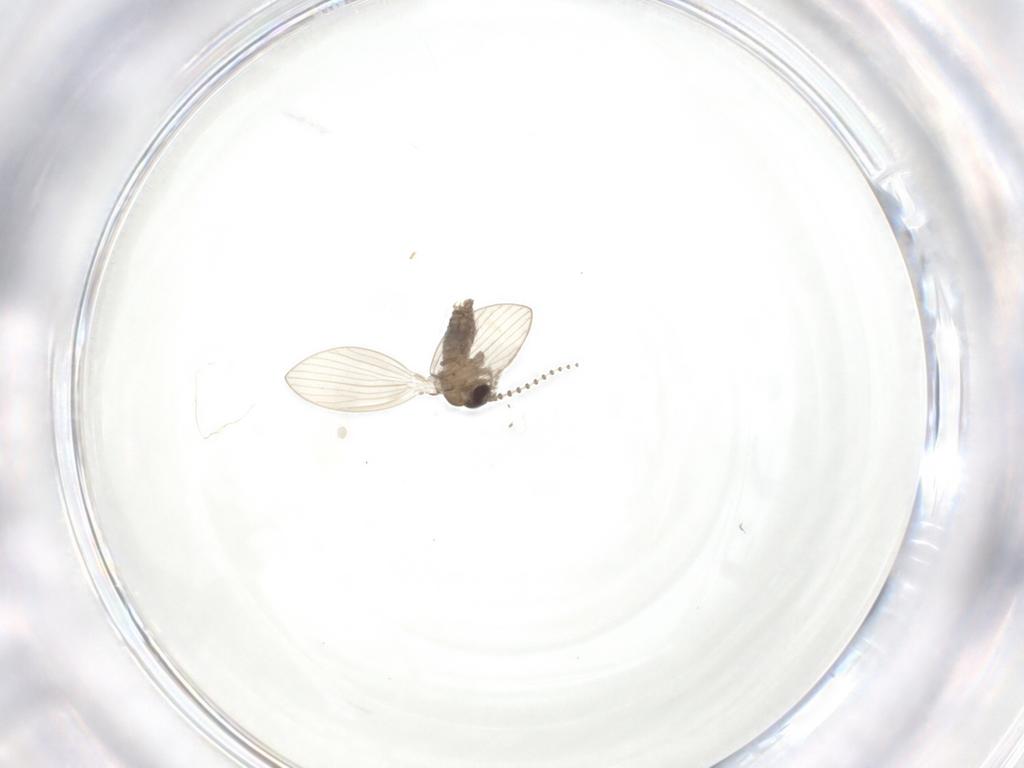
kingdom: Animalia
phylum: Arthropoda
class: Insecta
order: Diptera
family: Psychodidae
